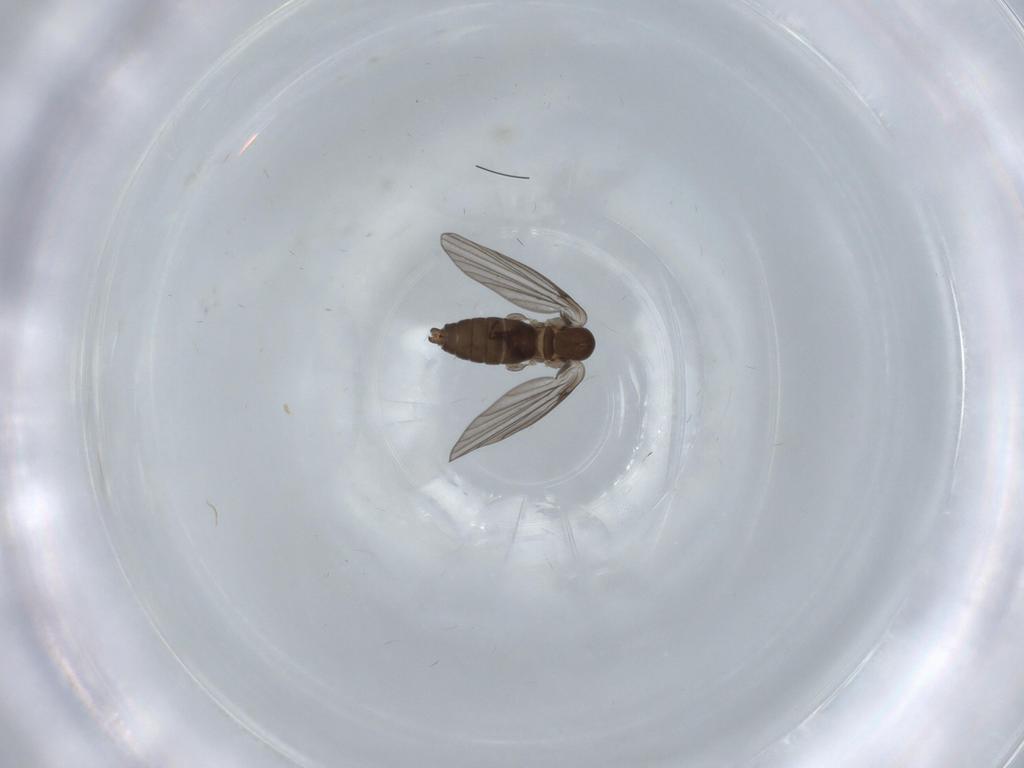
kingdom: Animalia
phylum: Arthropoda
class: Insecta
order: Diptera
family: Psychodidae
